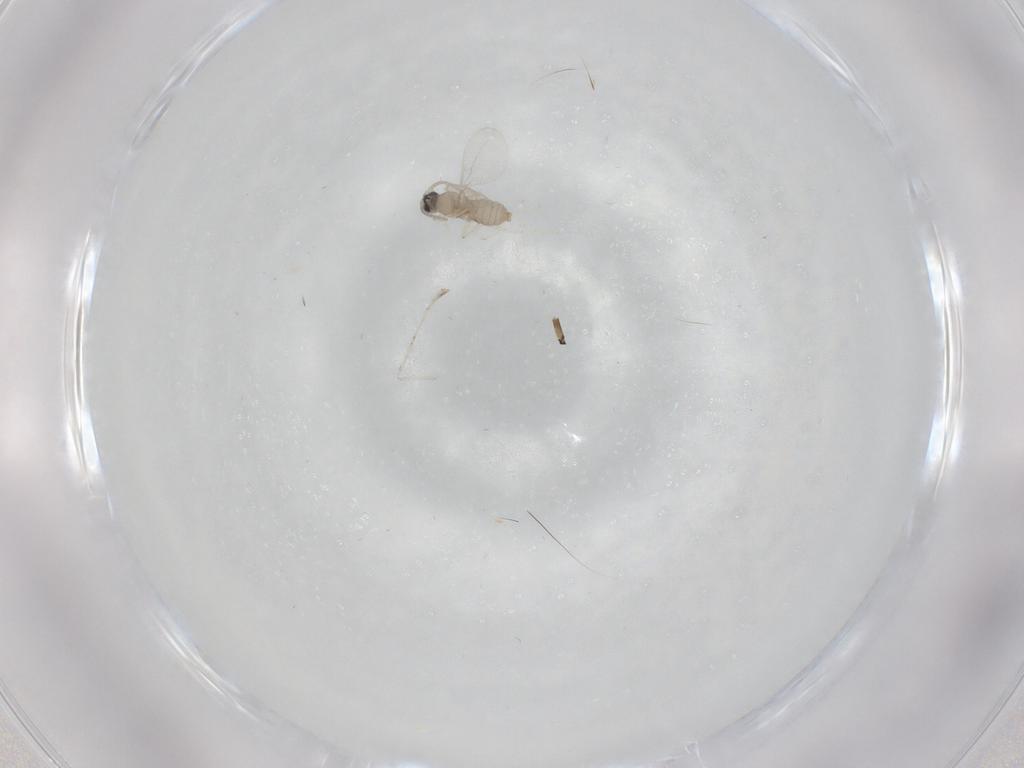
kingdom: Animalia
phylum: Arthropoda
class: Insecta
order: Diptera
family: Limoniidae
